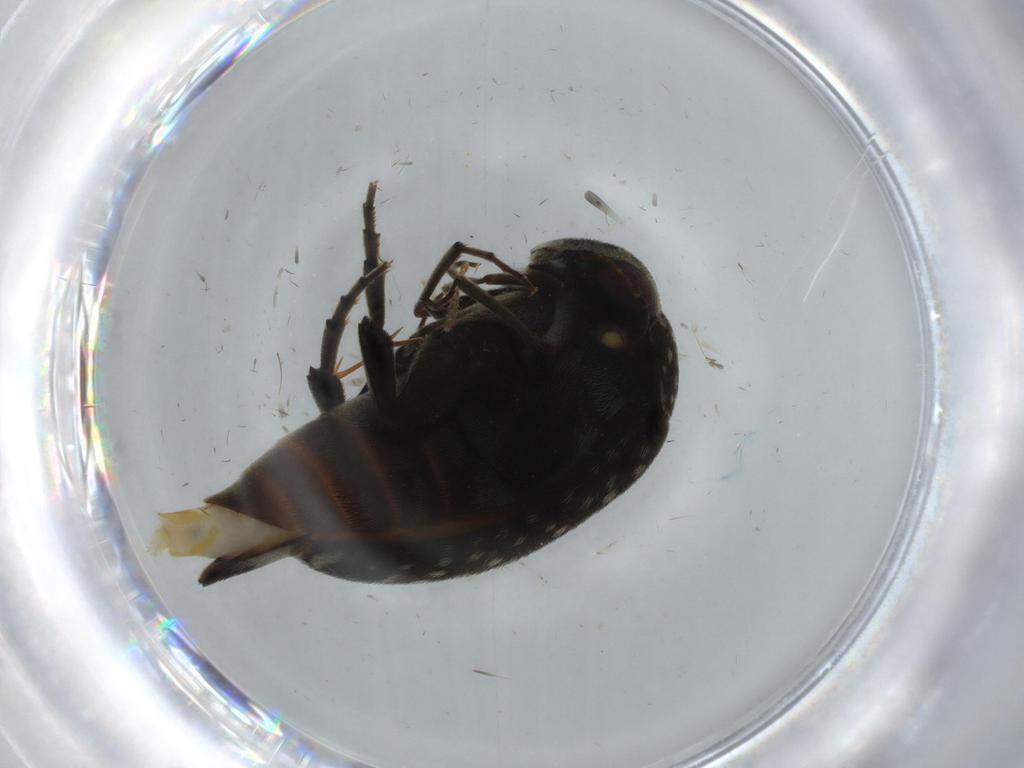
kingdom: Animalia
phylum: Arthropoda
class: Insecta
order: Coleoptera
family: Mordellidae
